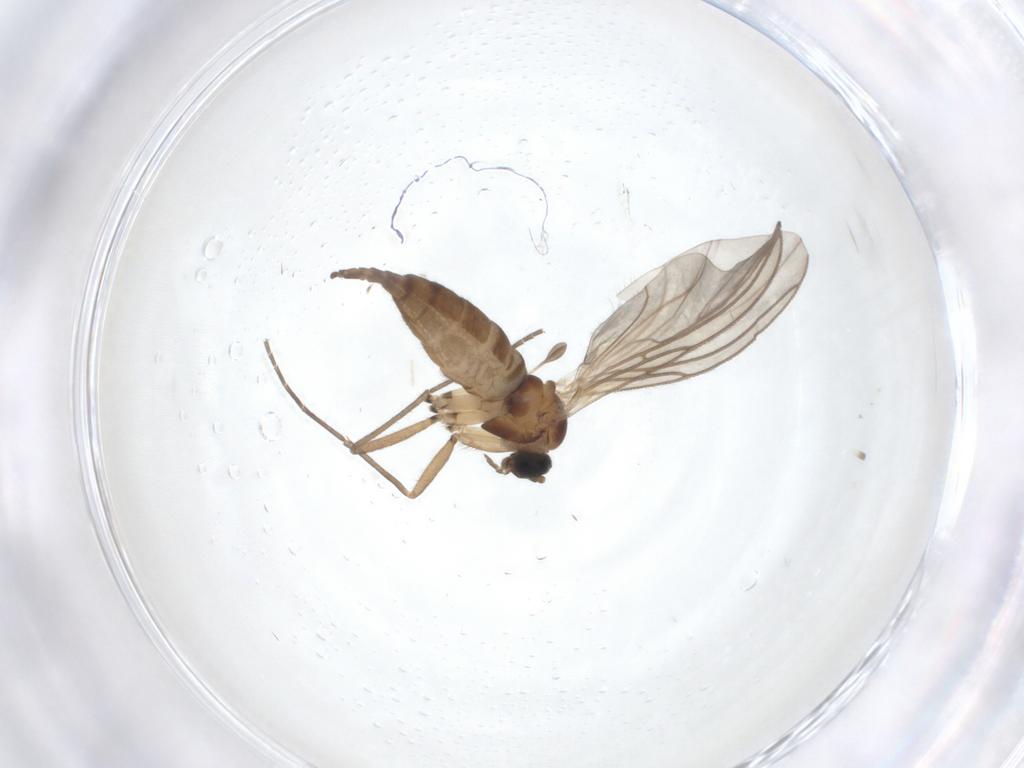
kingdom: Animalia
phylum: Arthropoda
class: Insecta
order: Diptera
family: Sciaridae
